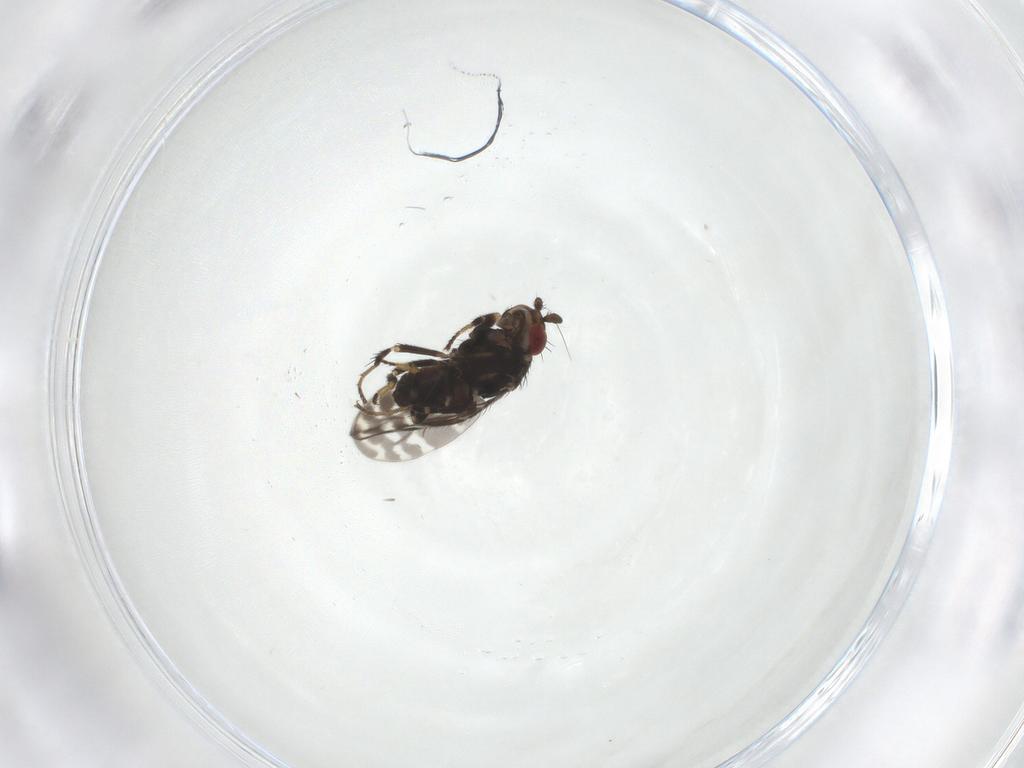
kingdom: Animalia
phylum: Arthropoda
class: Insecta
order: Diptera
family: Sphaeroceridae
